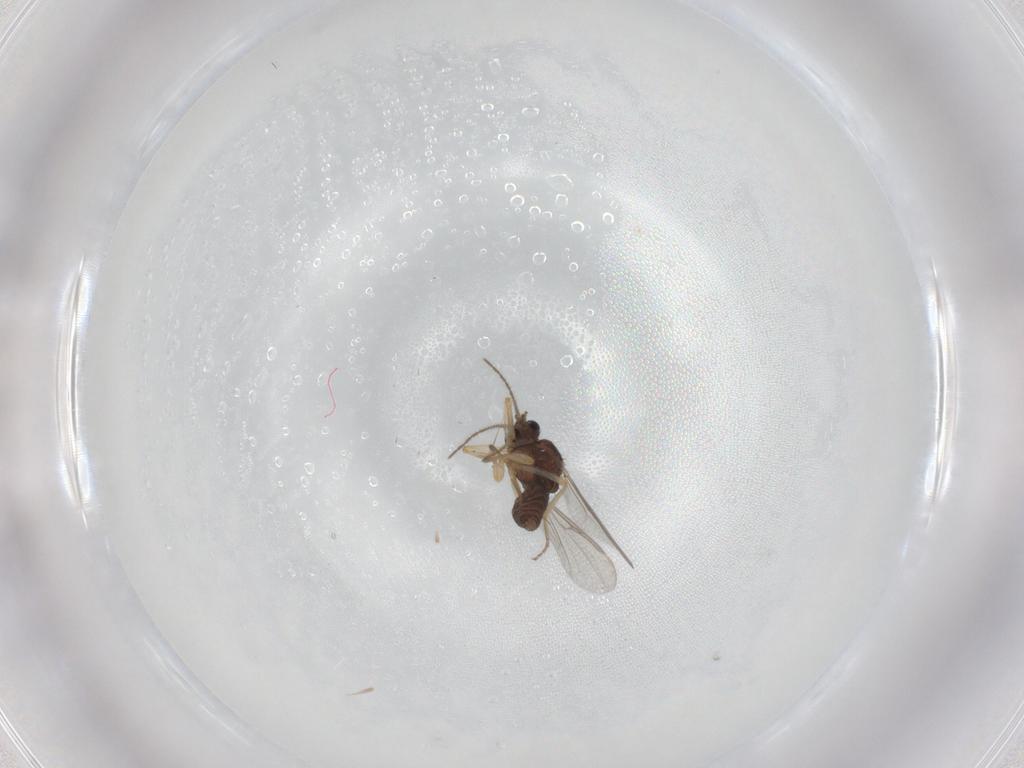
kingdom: Animalia
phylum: Arthropoda
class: Insecta
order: Diptera
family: Ceratopogonidae
